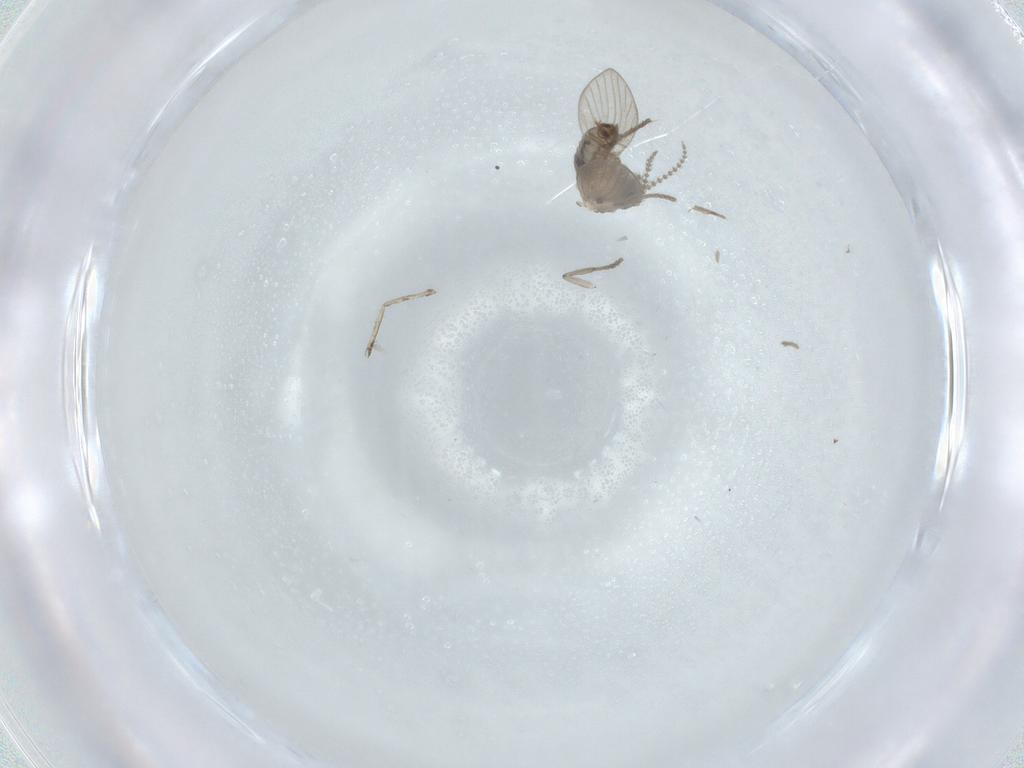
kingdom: Animalia
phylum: Arthropoda
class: Insecta
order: Diptera
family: Psychodidae
